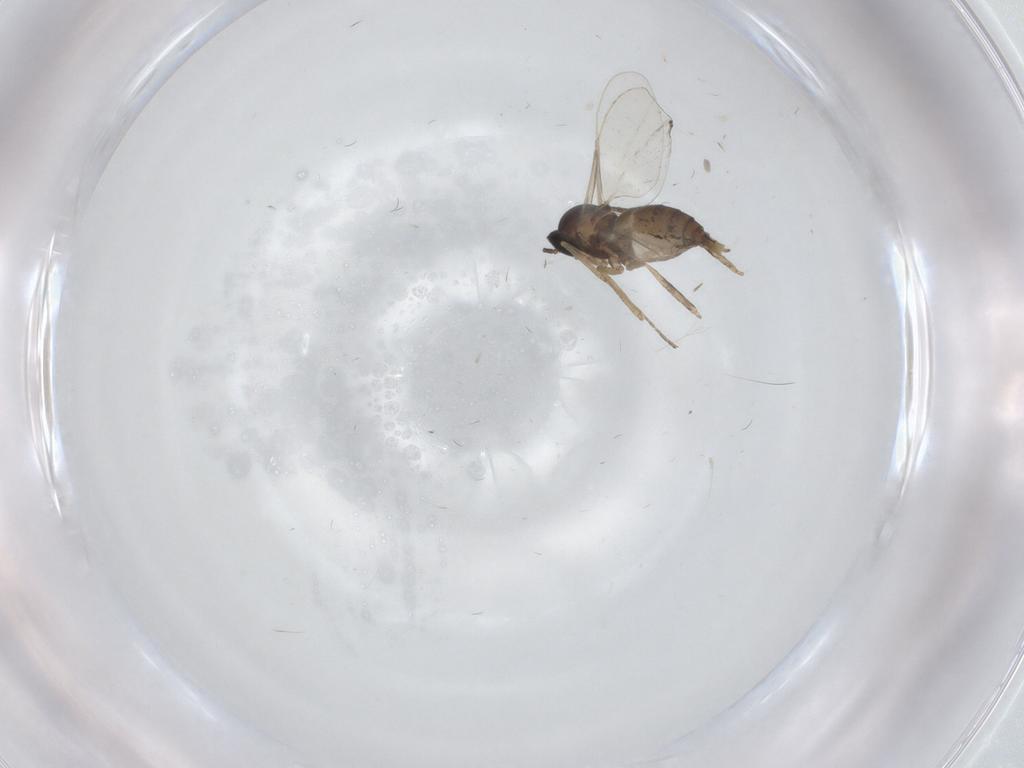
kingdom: Animalia
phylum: Arthropoda
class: Insecta
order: Diptera
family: Cecidomyiidae
